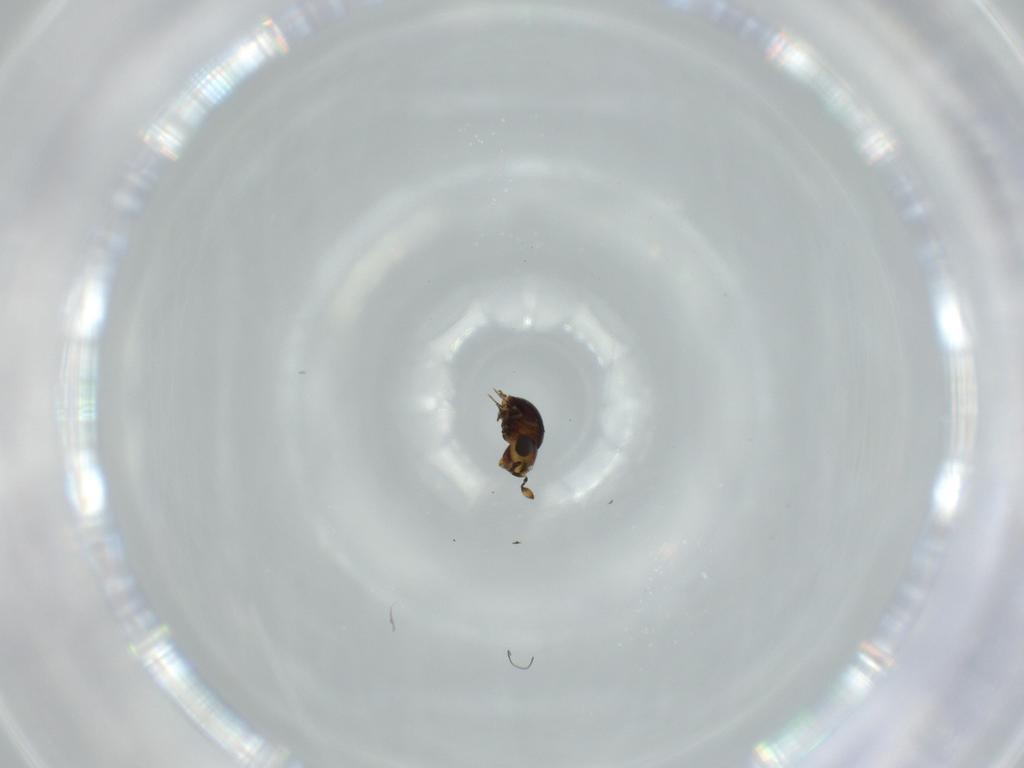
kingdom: Animalia
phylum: Arthropoda
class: Insecta
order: Hymenoptera
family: Scelionidae
